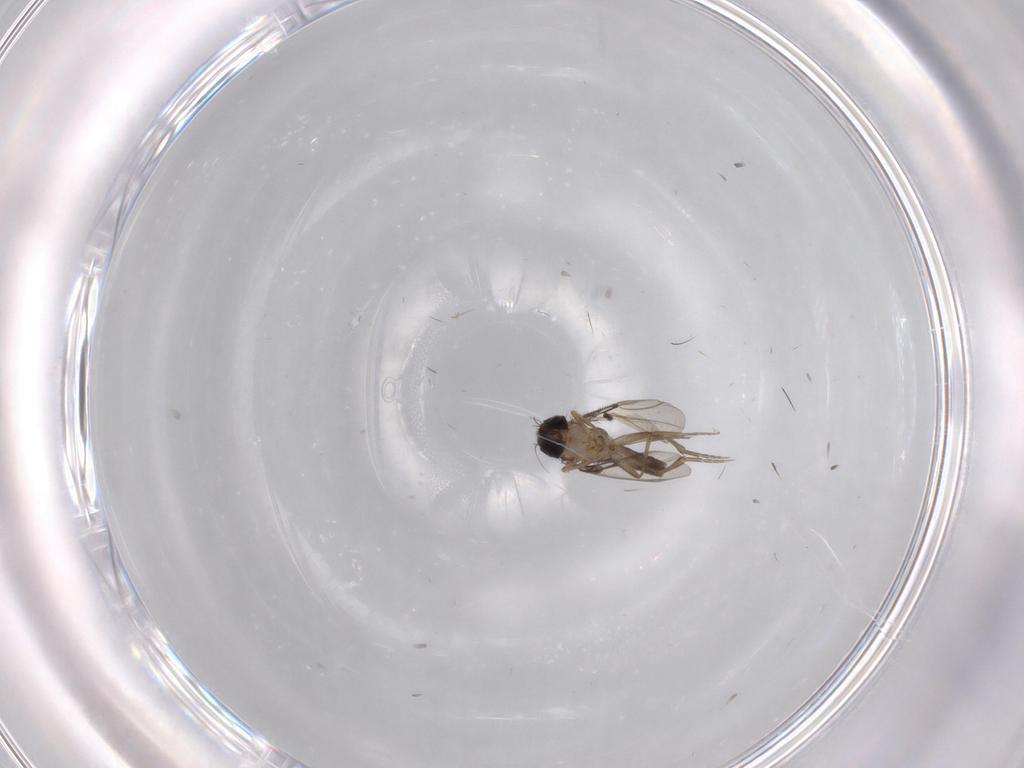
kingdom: Animalia
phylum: Arthropoda
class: Insecta
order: Diptera
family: Phoridae
